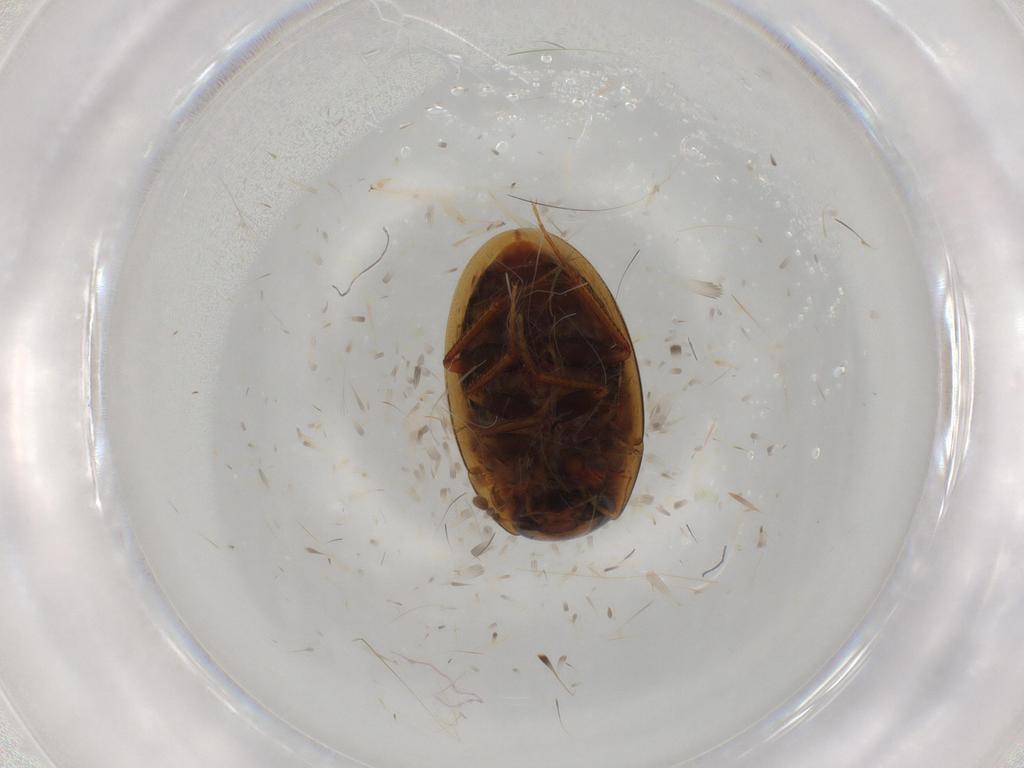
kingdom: Animalia
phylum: Arthropoda
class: Insecta
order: Coleoptera
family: Hydrophilidae
